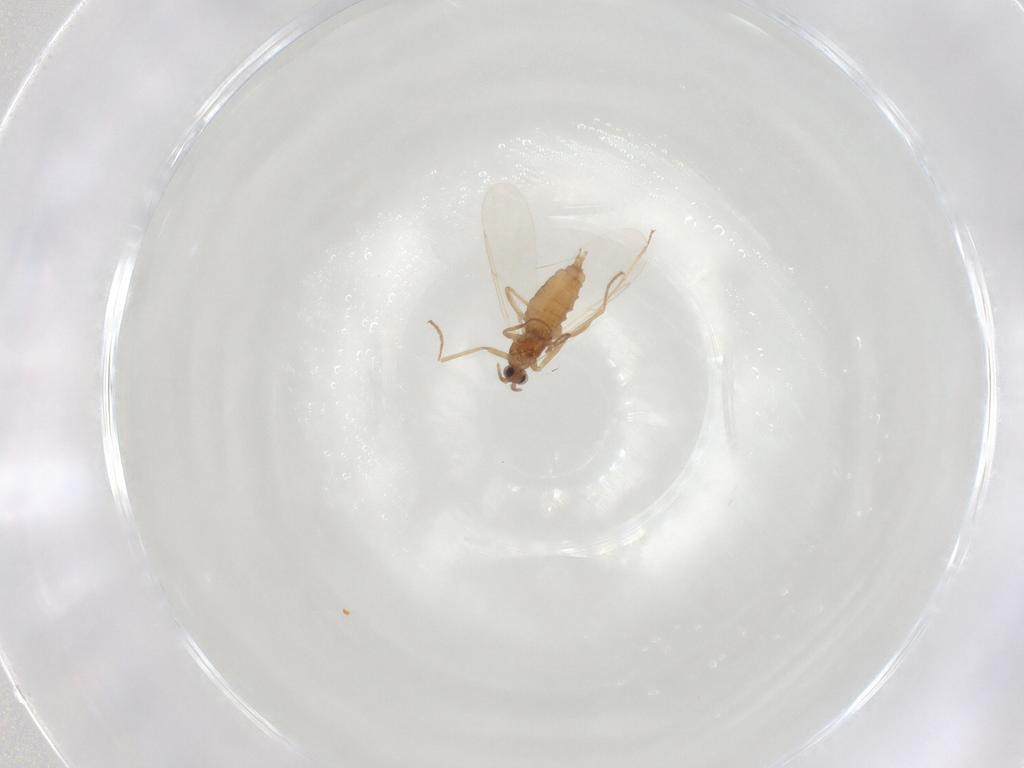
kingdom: Animalia
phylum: Arthropoda
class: Insecta
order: Diptera
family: Cecidomyiidae
